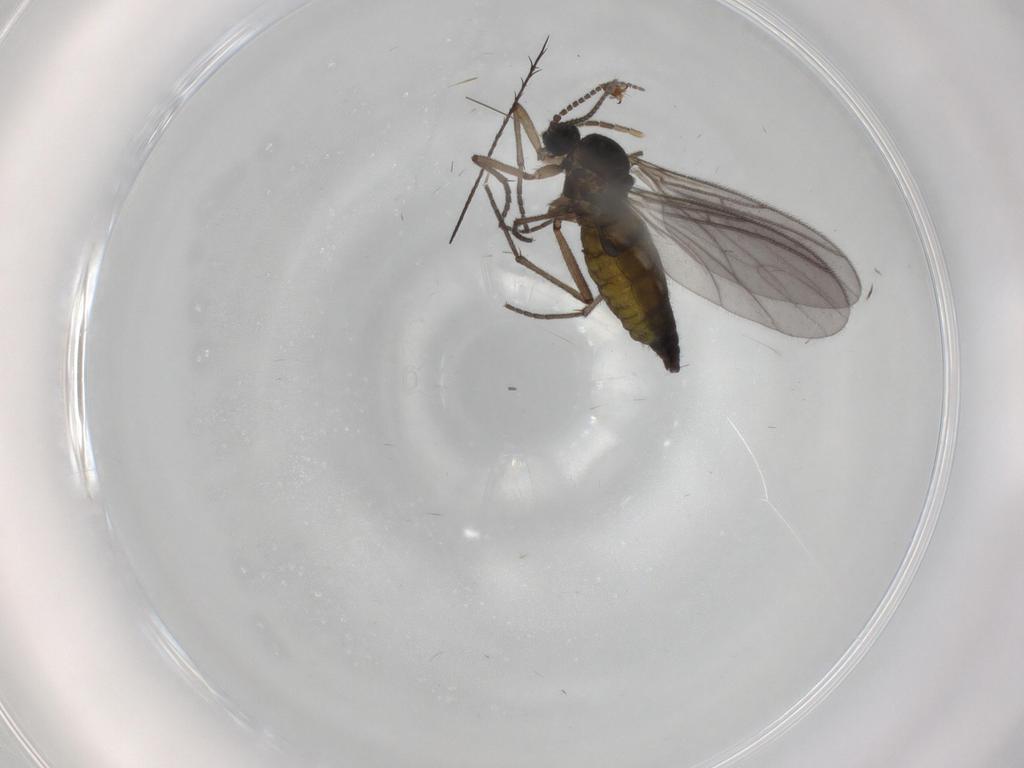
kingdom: Animalia
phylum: Arthropoda
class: Insecta
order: Diptera
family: Sciaridae
